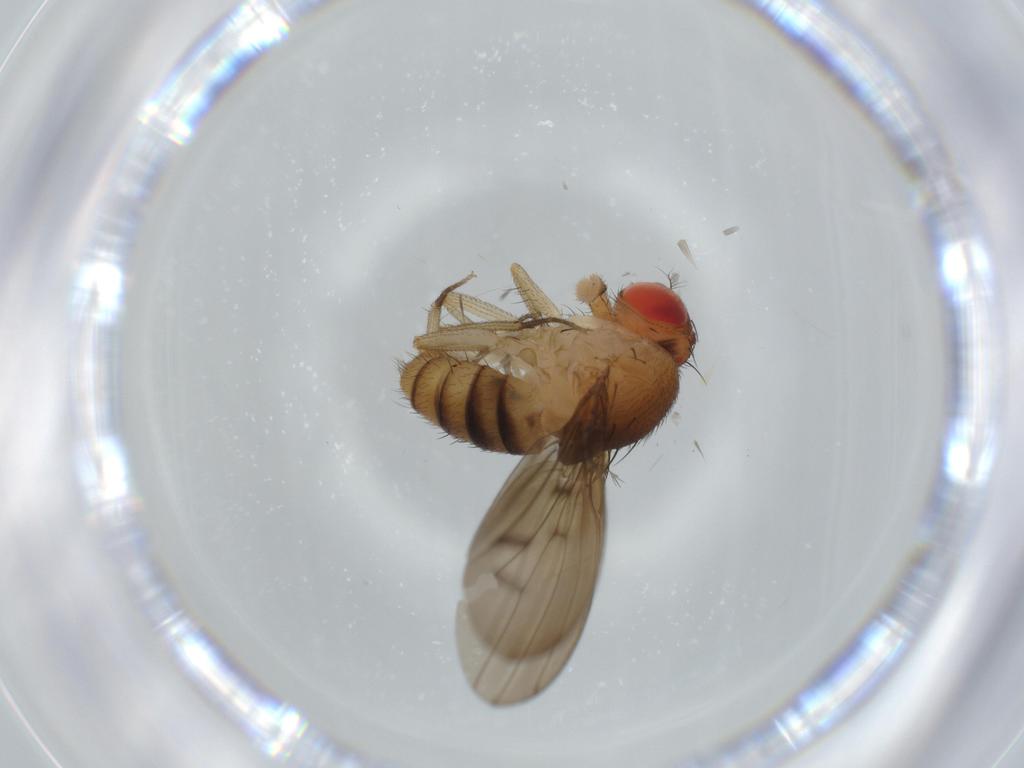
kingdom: Animalia
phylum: Arthropoda
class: Insecta
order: Diptera
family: Drosophilidae
